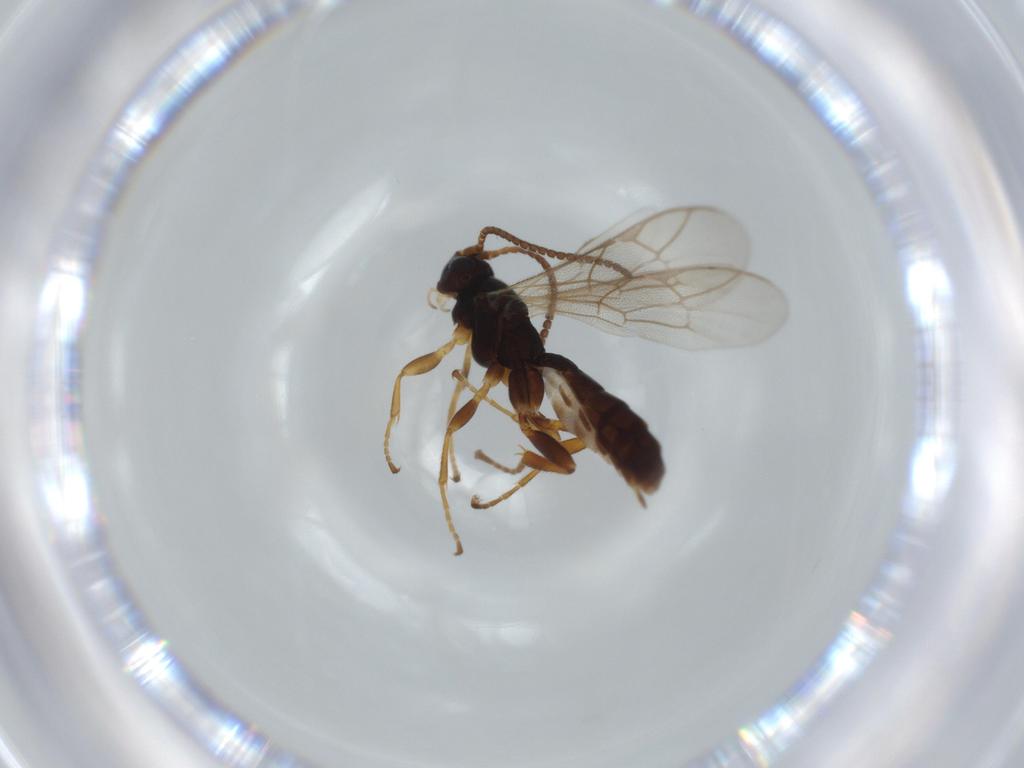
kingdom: Animalia
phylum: Arthropoda
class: Insecta
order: Hymenoptera
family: Ichneumonidae
